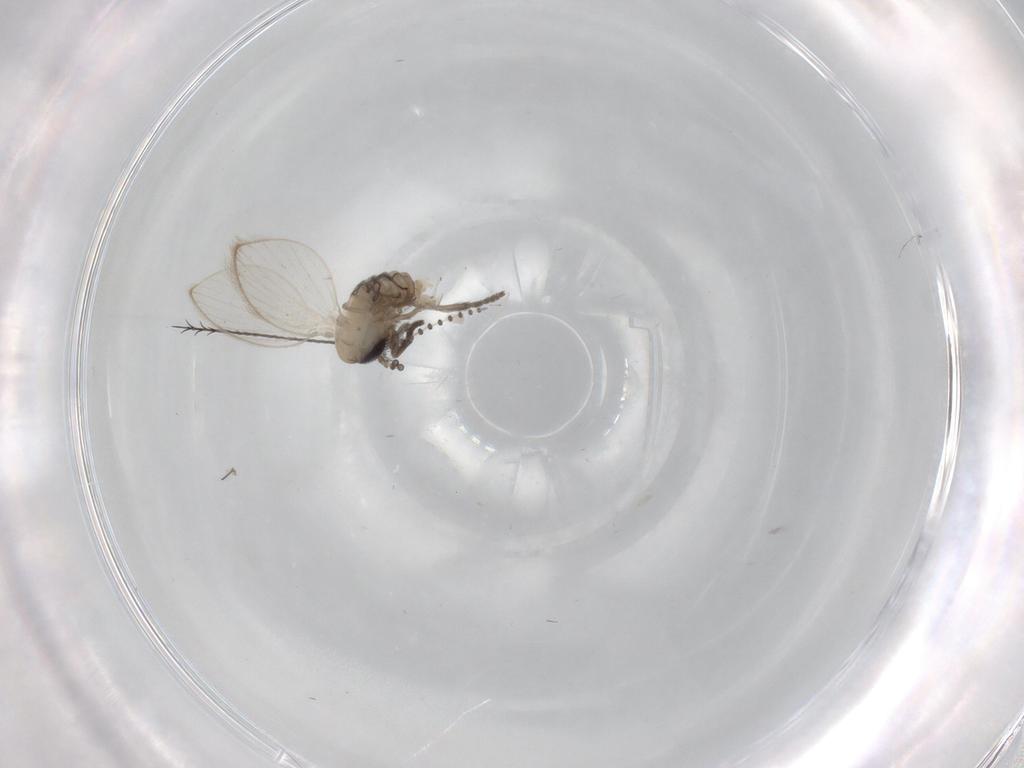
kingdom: Animalia
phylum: Arthropoda
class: Insecta
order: Diptera
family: Psychodidae
